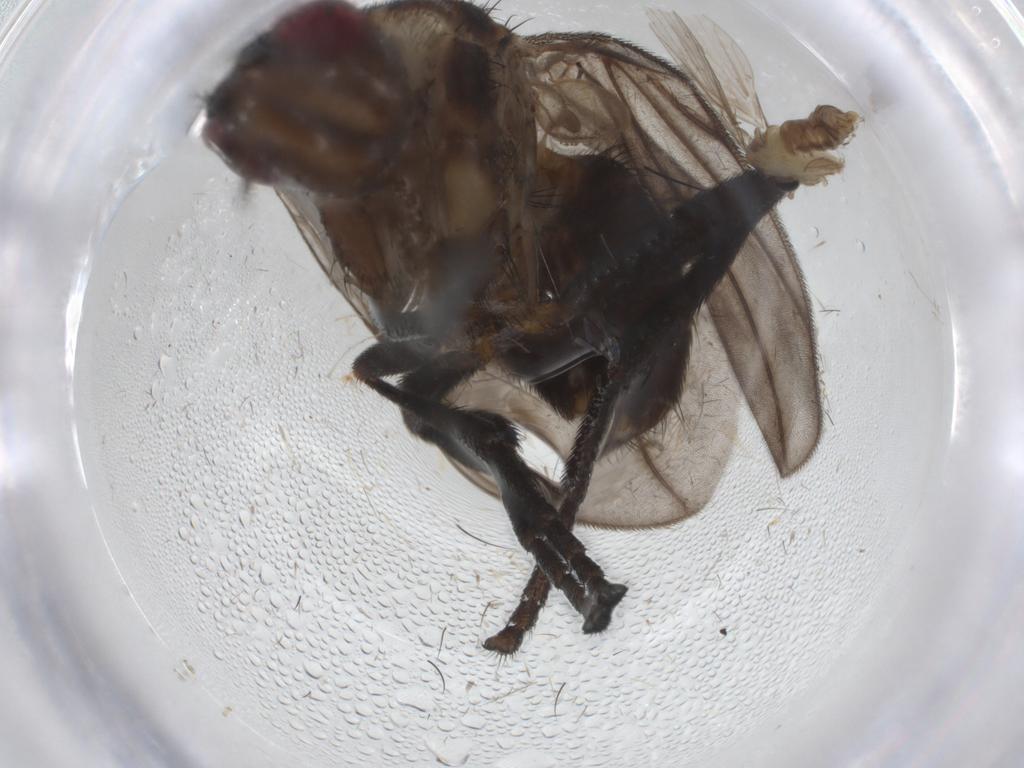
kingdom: Animalia
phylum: Arthropoda
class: Insecta
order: Diptera
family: Calliphoridae
